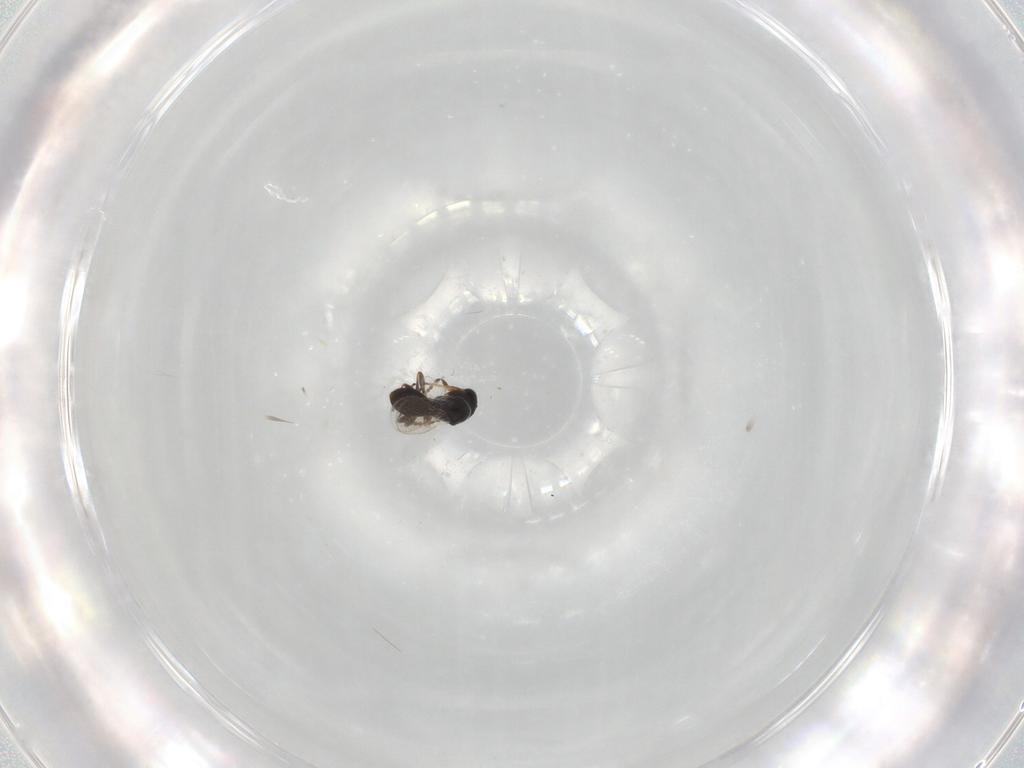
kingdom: Animalia
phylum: Arthropoda
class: Insecta
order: Hymenoptera
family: Platygastridae
